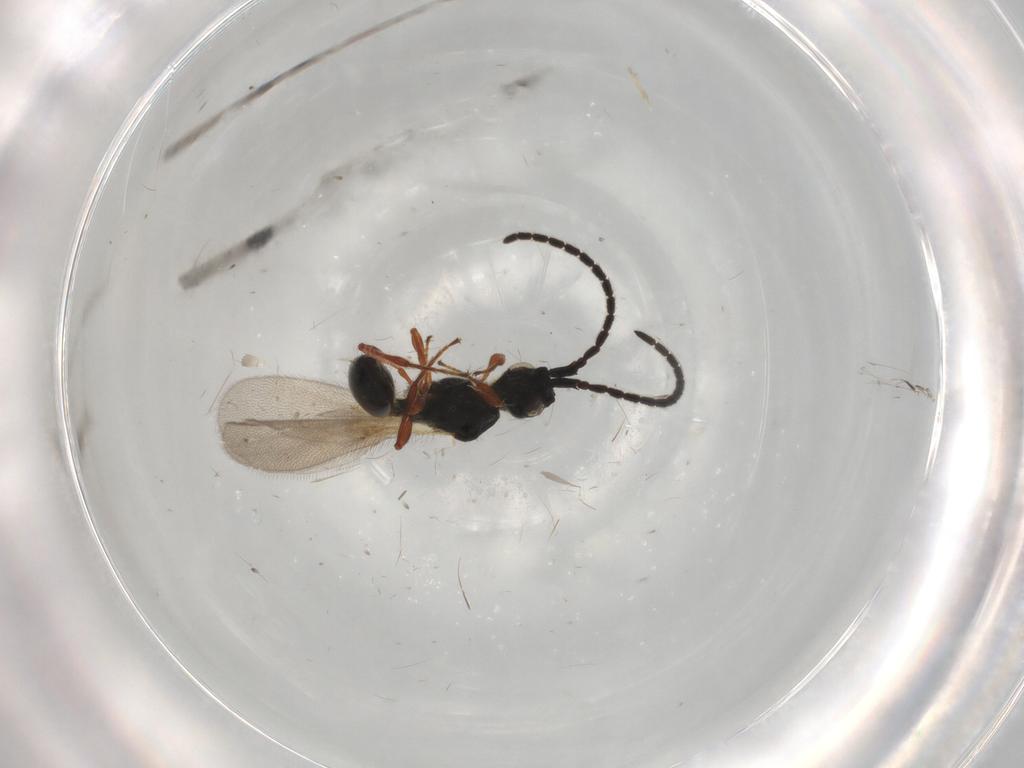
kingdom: Animalia
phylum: Arthropoda
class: Insecta
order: Hymenoptera
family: Diapriidae
